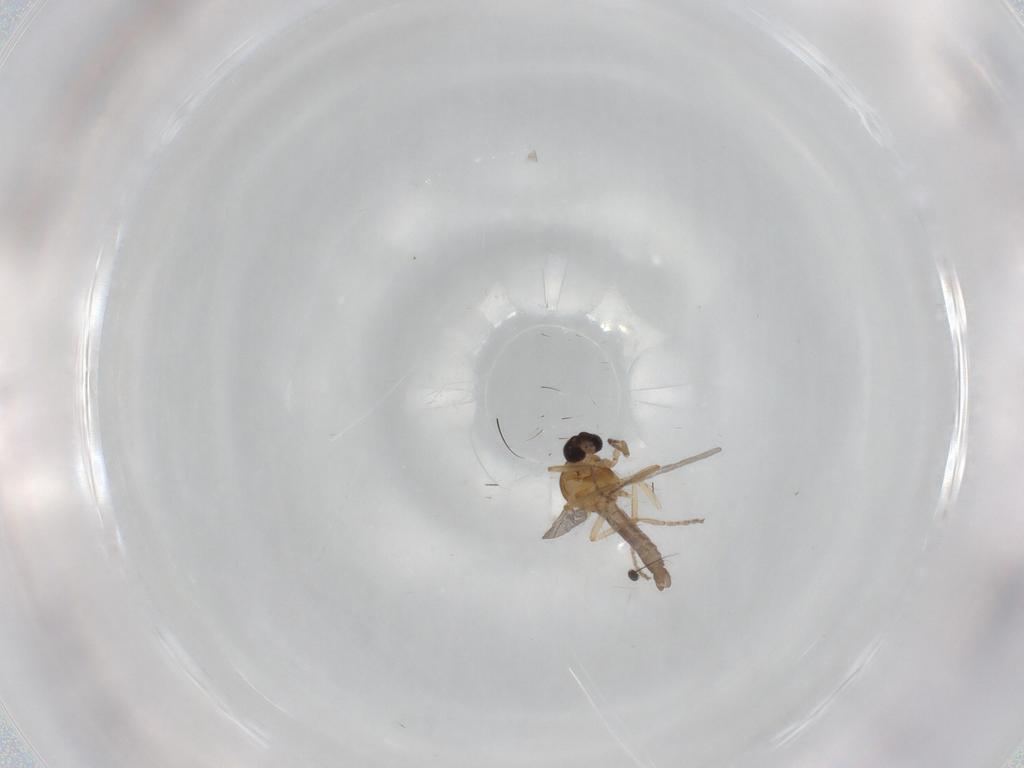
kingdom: Animalia
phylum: Arthropoda
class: Insecta
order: Diptera
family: Ceratopogonidae
